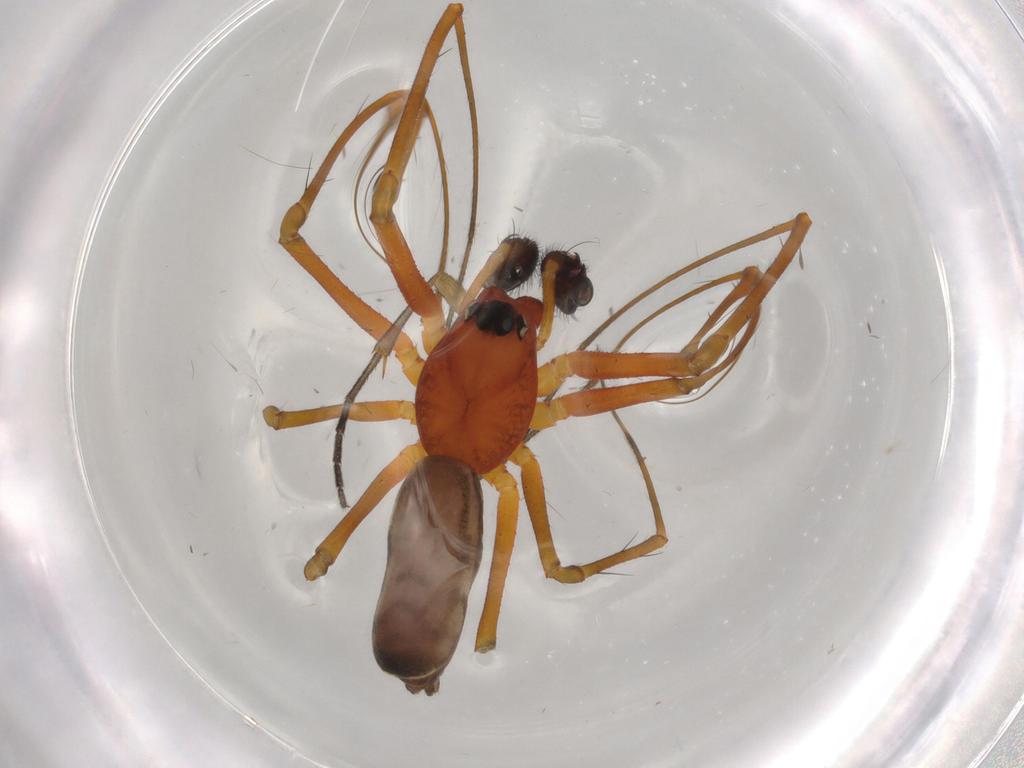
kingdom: Animalia
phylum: Arthropoda
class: Arachnida
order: Araneae
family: Linyphiidae
